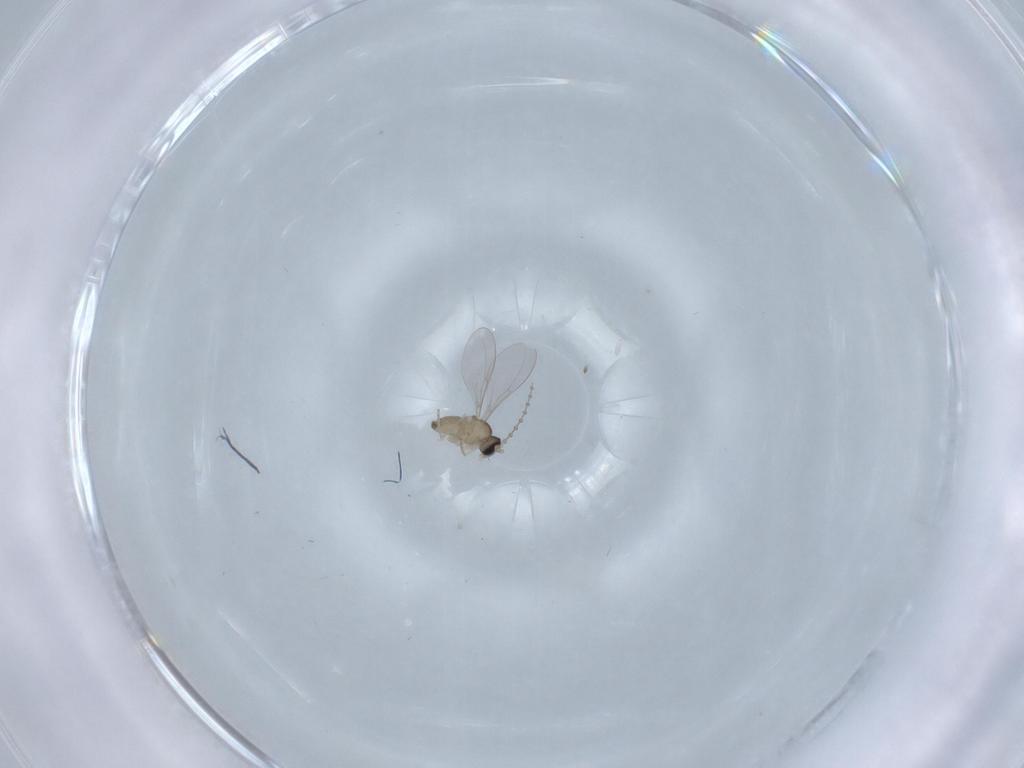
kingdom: Animalia
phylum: Arthropoda
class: Insecta
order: Diptera
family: Cecidomyiidae
